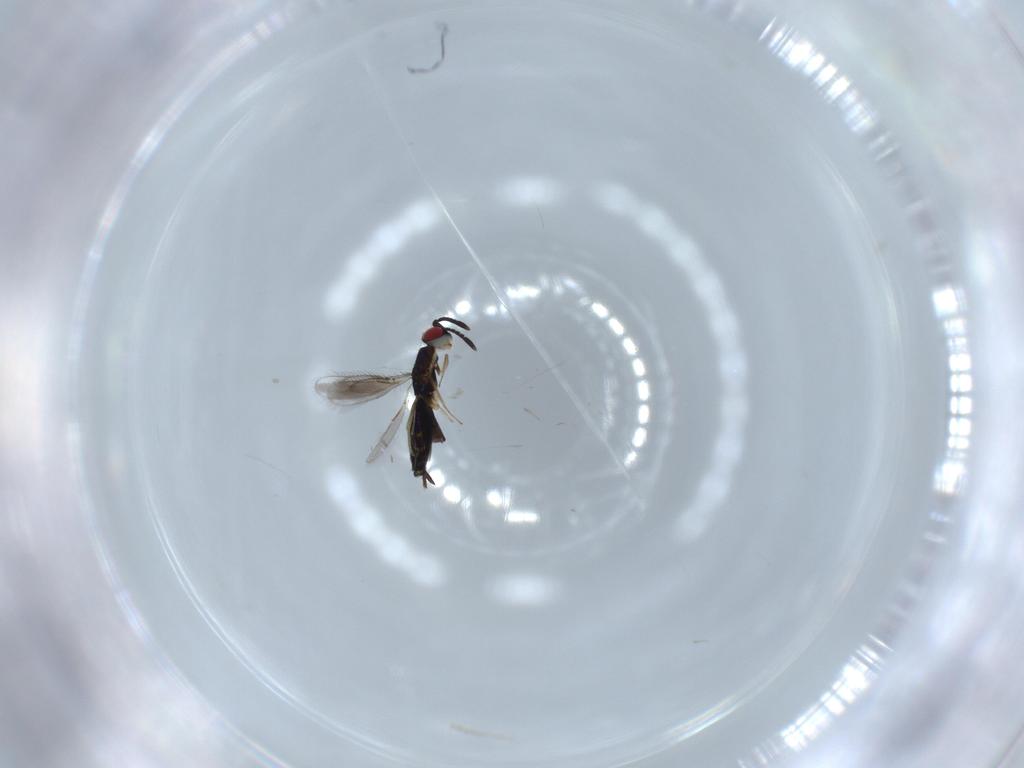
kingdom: Animalia
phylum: Arthropoda
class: Insecta
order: Hymenoptera
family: Pteromalidae
